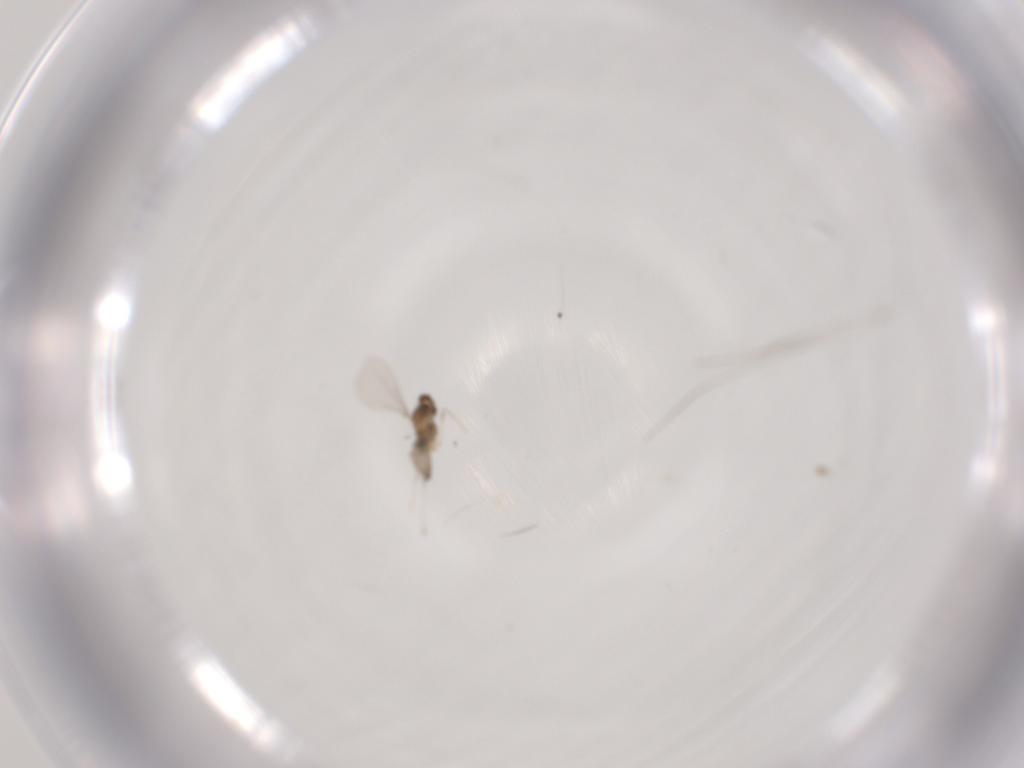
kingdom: Animalia
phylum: Arthropoda
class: Insecta
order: Diptera
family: Cecidomyiidae
